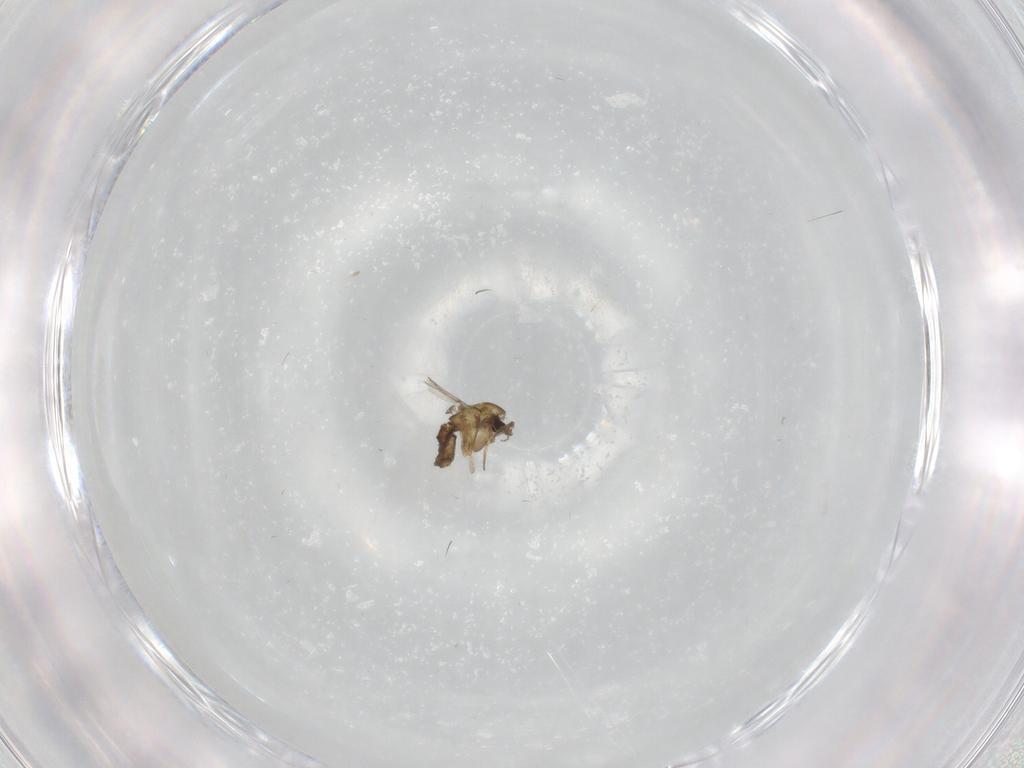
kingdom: Animalia
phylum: Arthropoda
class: Insecta
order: Diptera
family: Chironomidae
